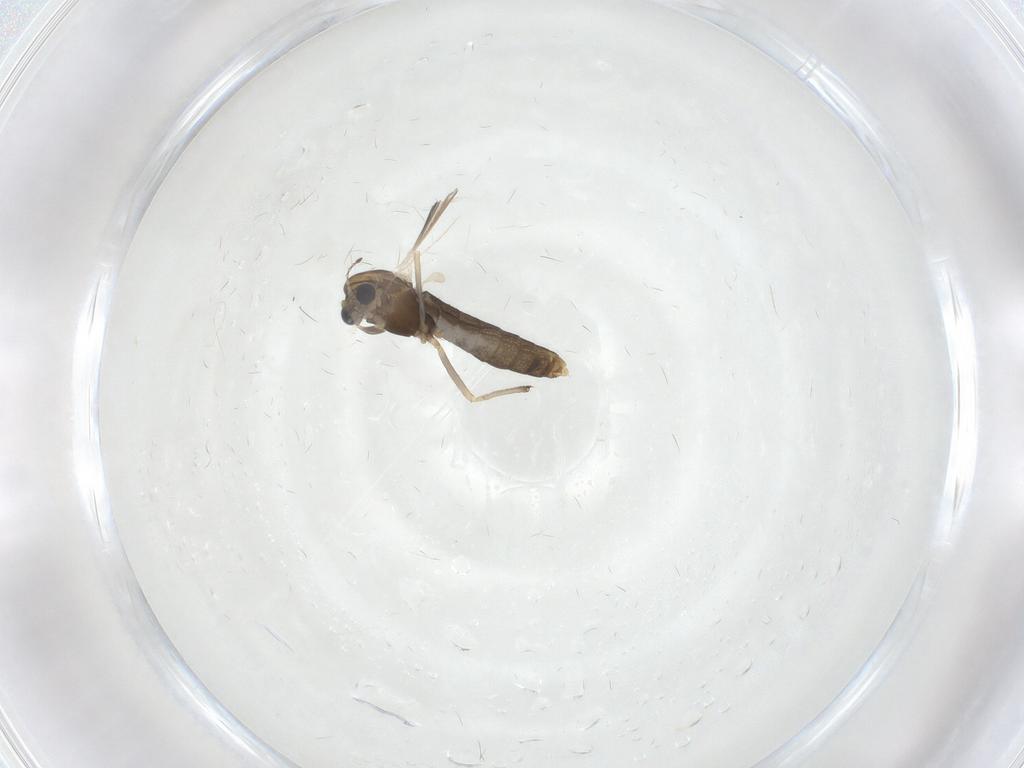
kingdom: Animalia
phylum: Arthropoda
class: Insecta
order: Diptera
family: Chironomidae
